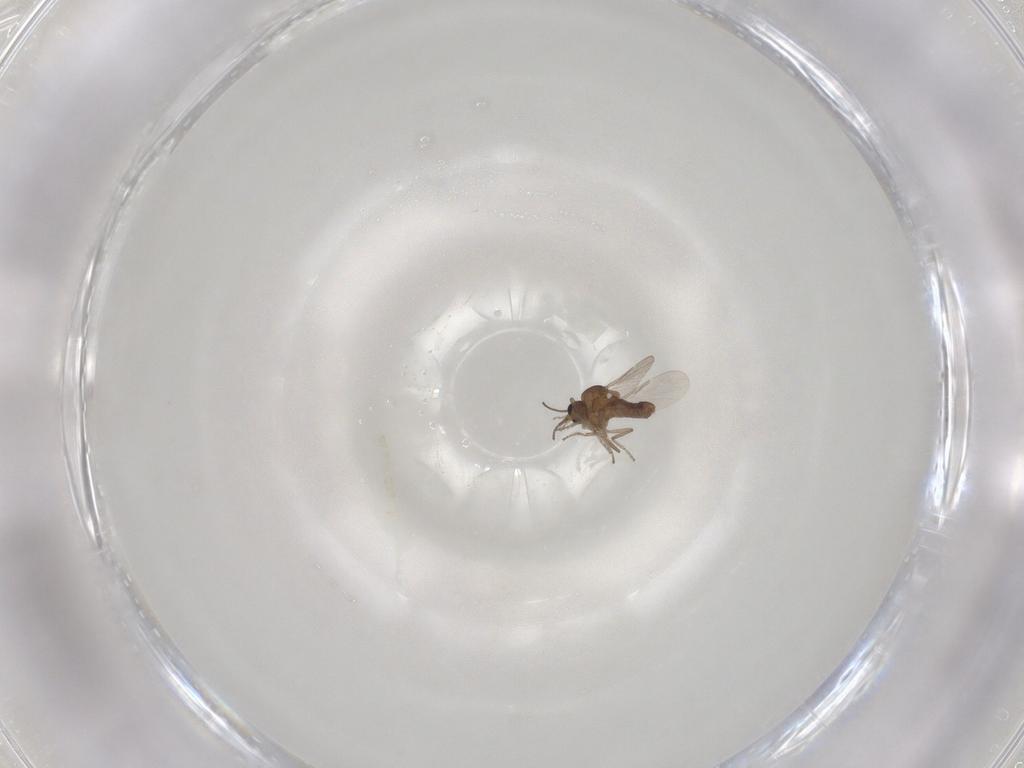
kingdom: Animalia
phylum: Arthropoda
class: Insecta
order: Diptera
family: Ceratopogonidae
